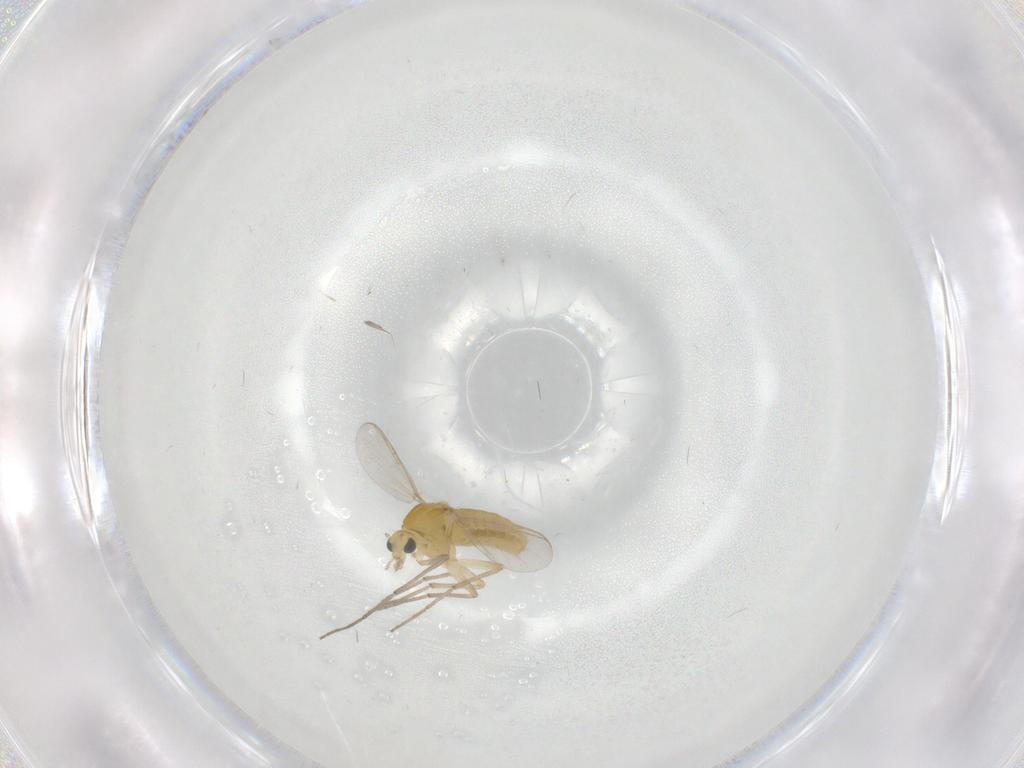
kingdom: Animalia
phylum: Arthropoda
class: Insecta
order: Diptera
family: Chironomidae
